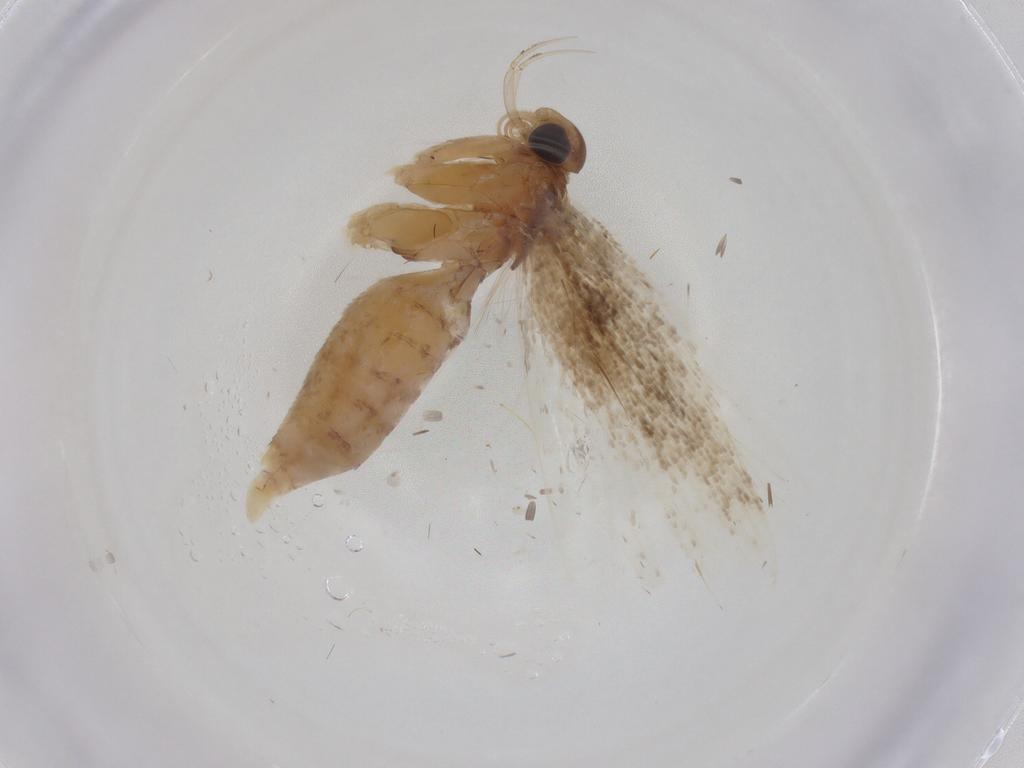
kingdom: Animalia
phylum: Arthropoda
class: Insecta
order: Lepidoptera
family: Gelechiidae
